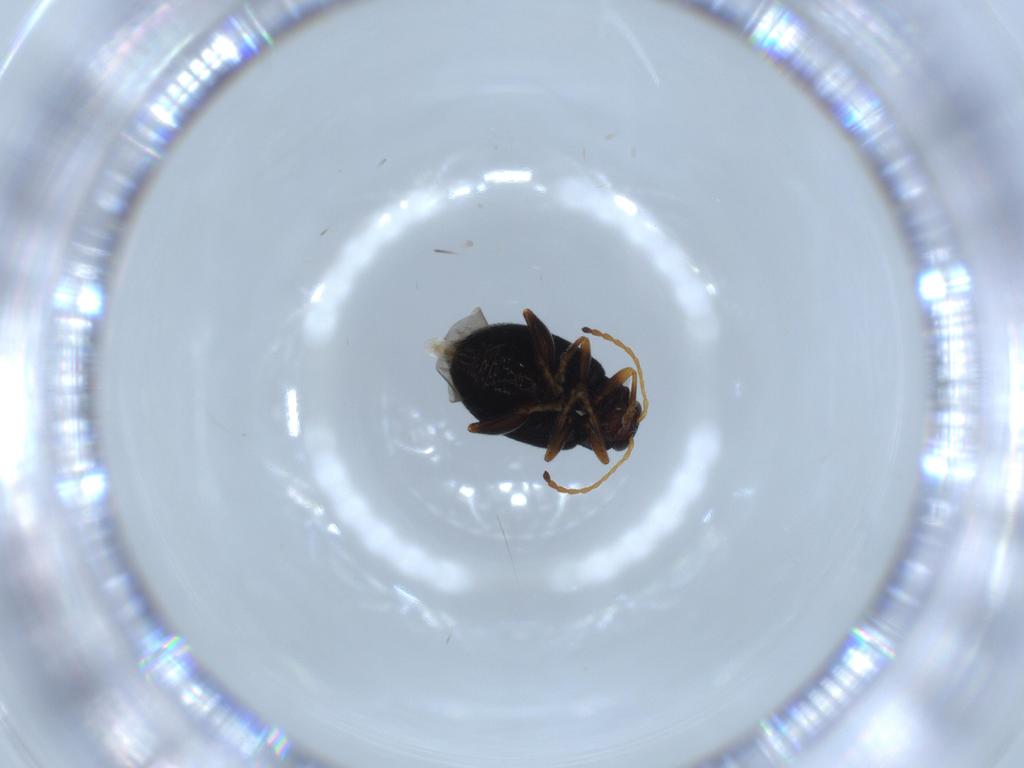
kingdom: Animalia
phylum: Arthropoda
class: Insecta
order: Coleoptera
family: Chrysomelidae
